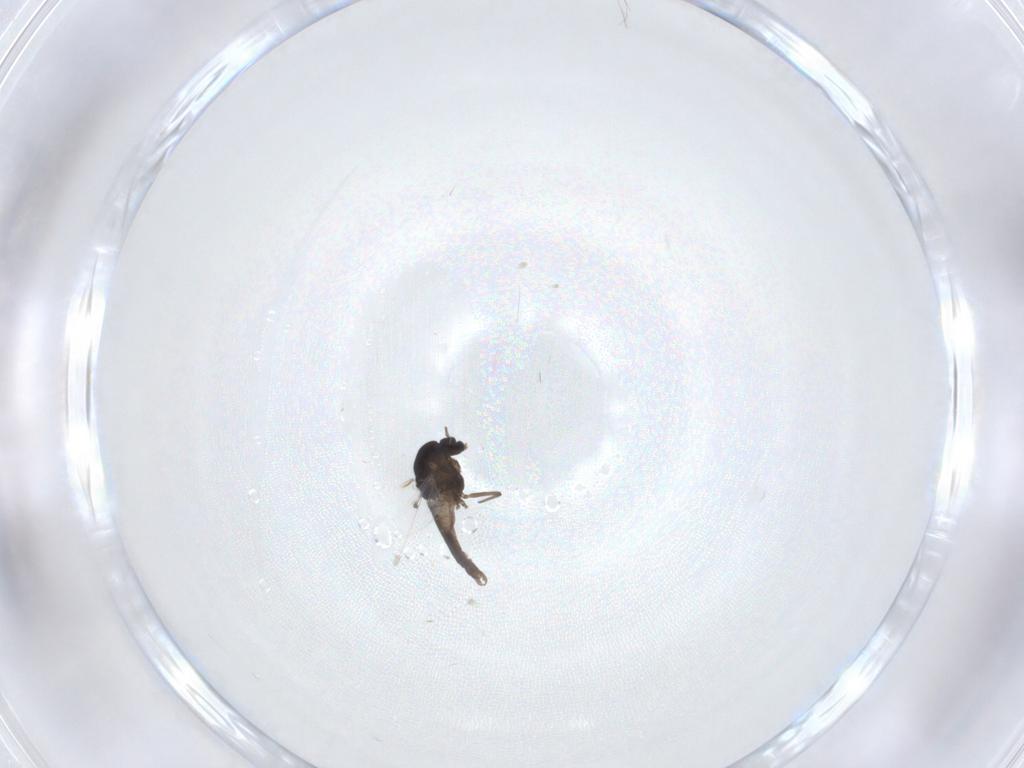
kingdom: Animalia
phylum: Arthropoda
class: Insecta
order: Diptera
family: Chironomidae
